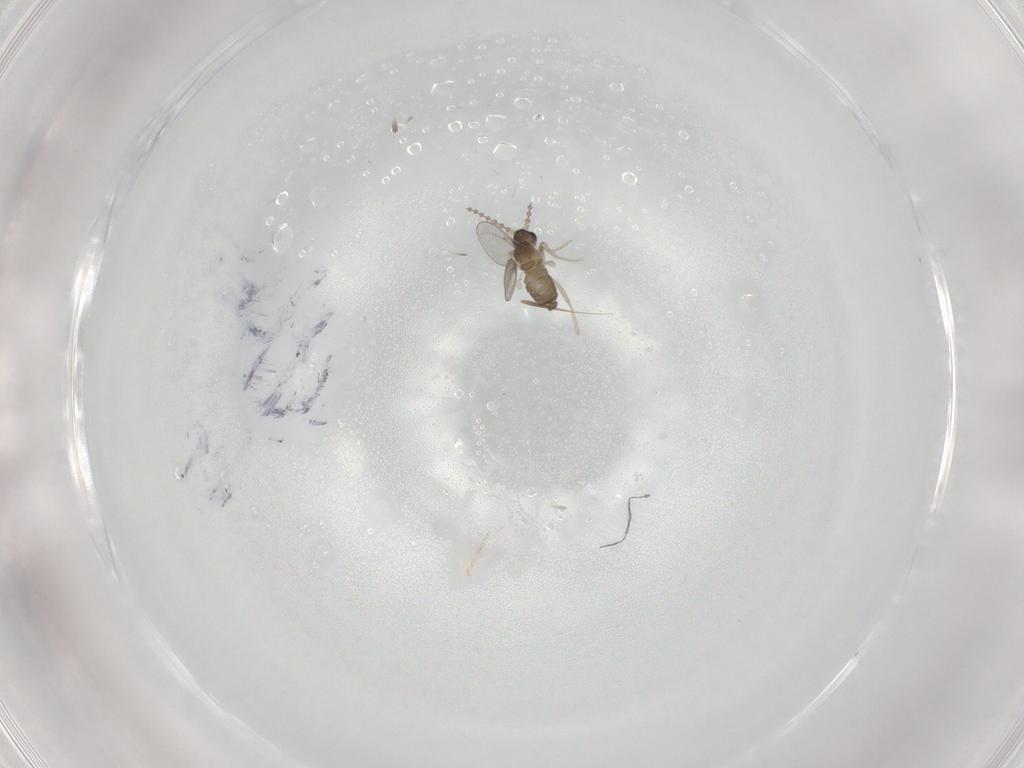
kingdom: Animalia
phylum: Arthropoda
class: Insecta
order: Diptera
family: Cecidomyiidae
